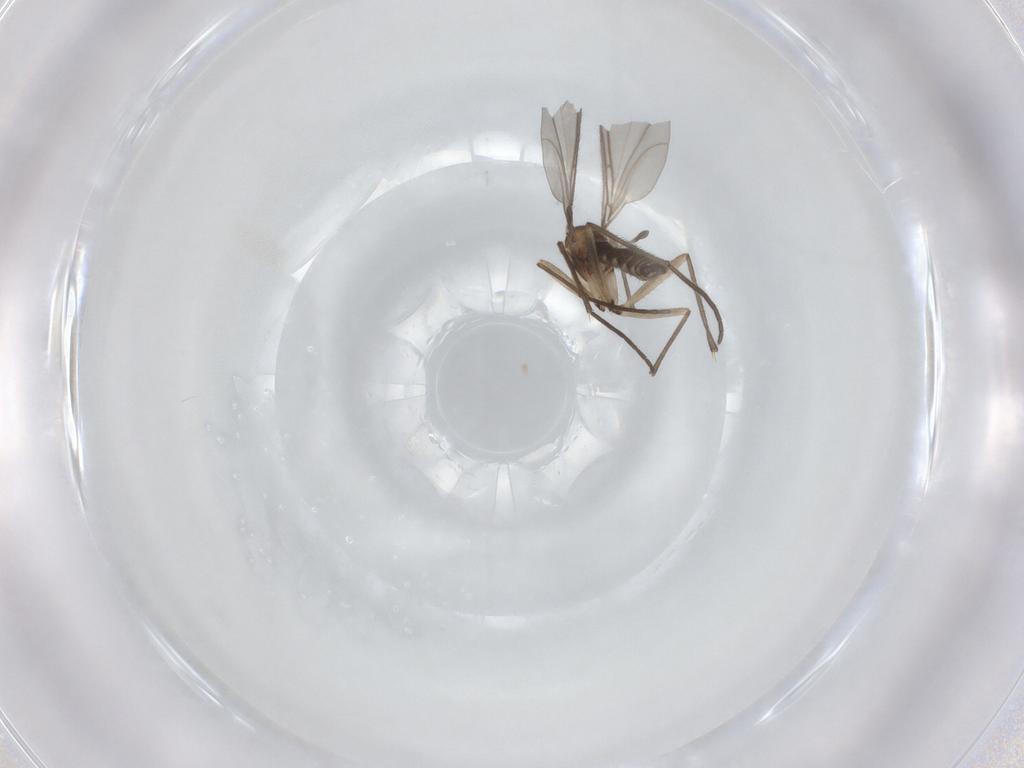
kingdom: Animalia
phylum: Arthropoda
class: Insecta
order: Diptera
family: Sciaridae
